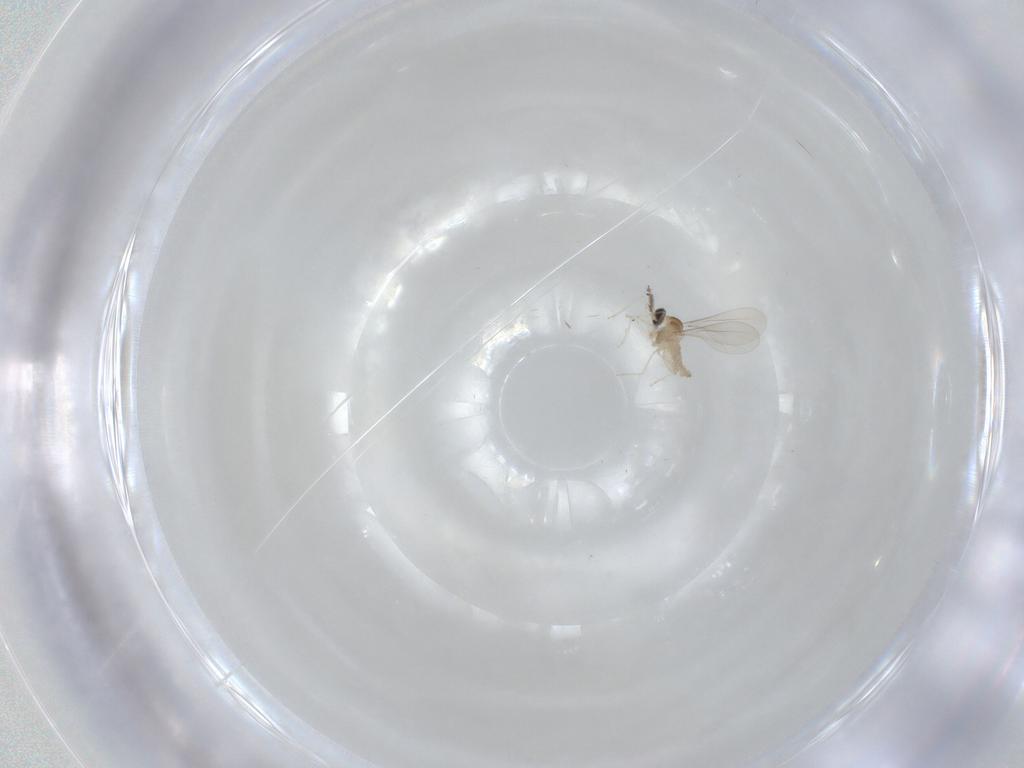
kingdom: Animalia
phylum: Arthropoda
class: Insecta
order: Diptera
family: Cecidomyiidae
